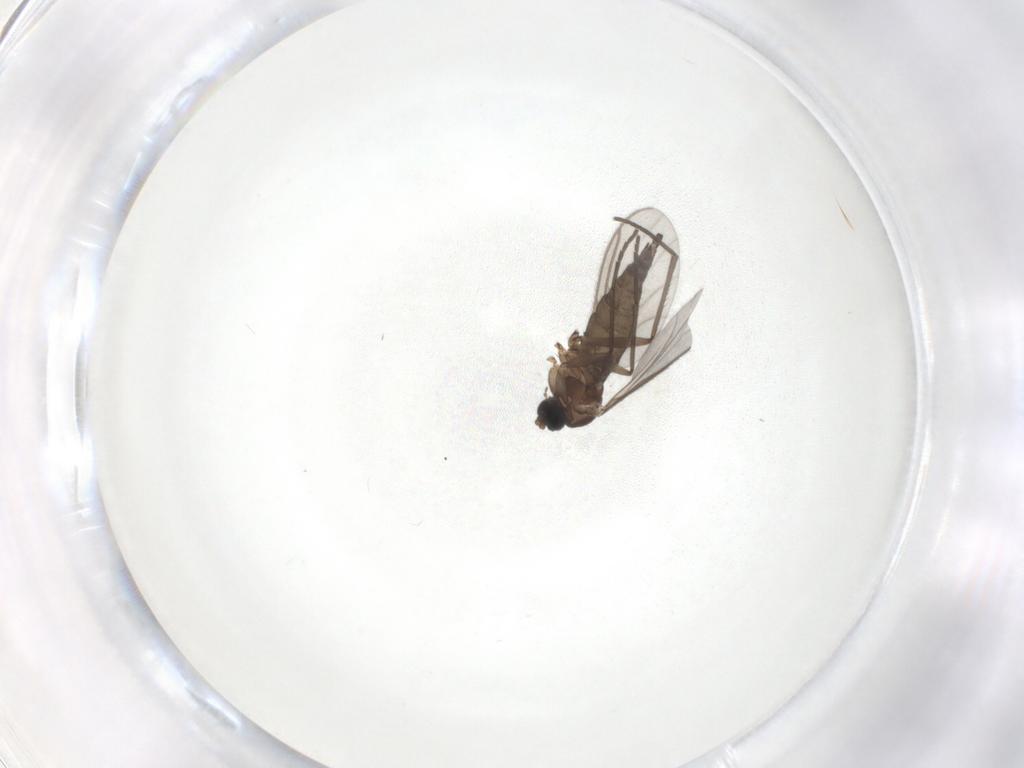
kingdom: Animalia
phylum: Arthropoda
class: Insecta
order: Diptera
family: Sciaridae
